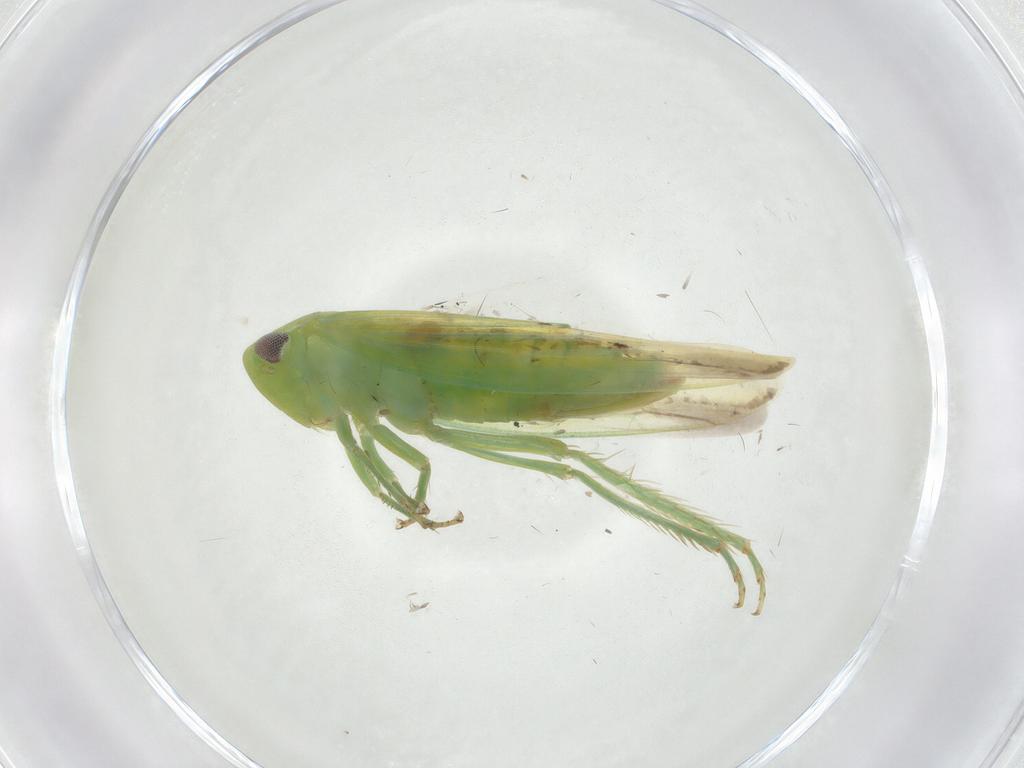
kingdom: Animalia
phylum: Arthropoda
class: Insecta
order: Hemiptera
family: Cicadellidae
